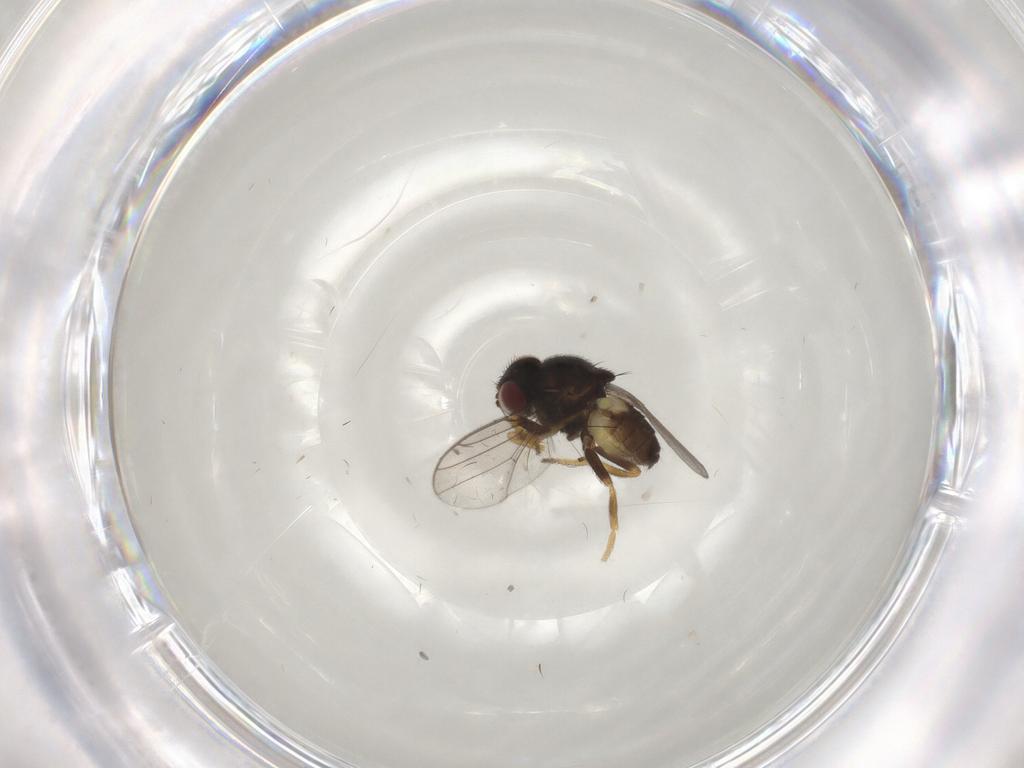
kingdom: Animalia
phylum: Arthropoda
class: Insecta
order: Diptera
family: Chloropidae
